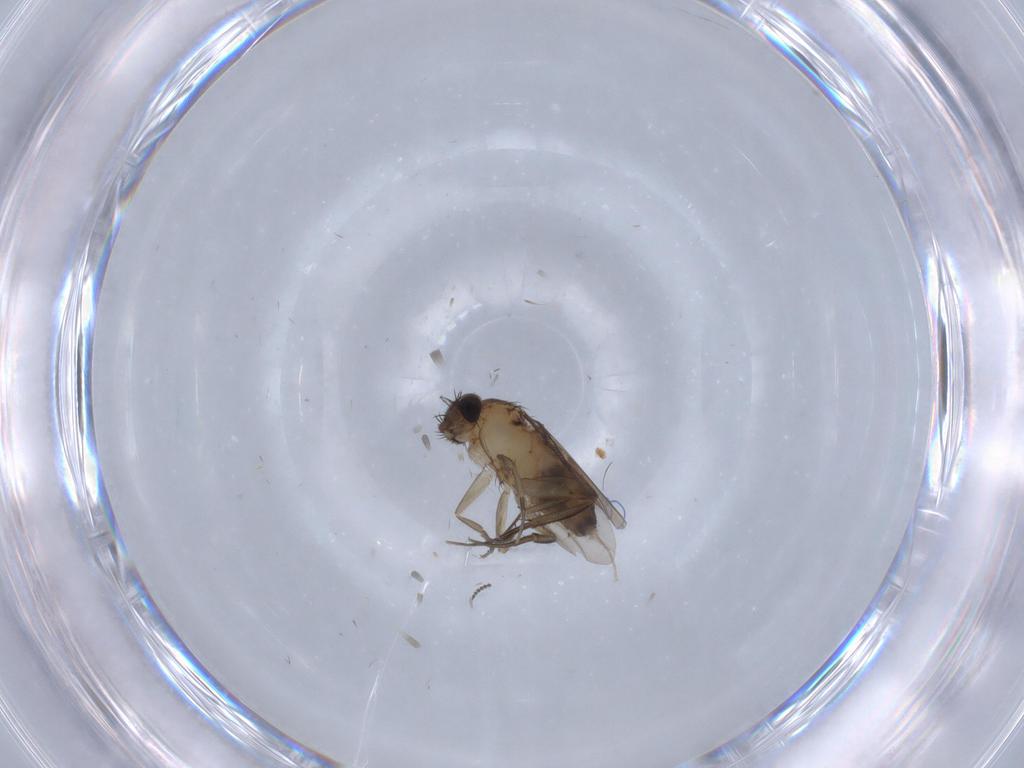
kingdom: Animalia
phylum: Arthropoda
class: Insecta
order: Diptera
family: Phoridae
